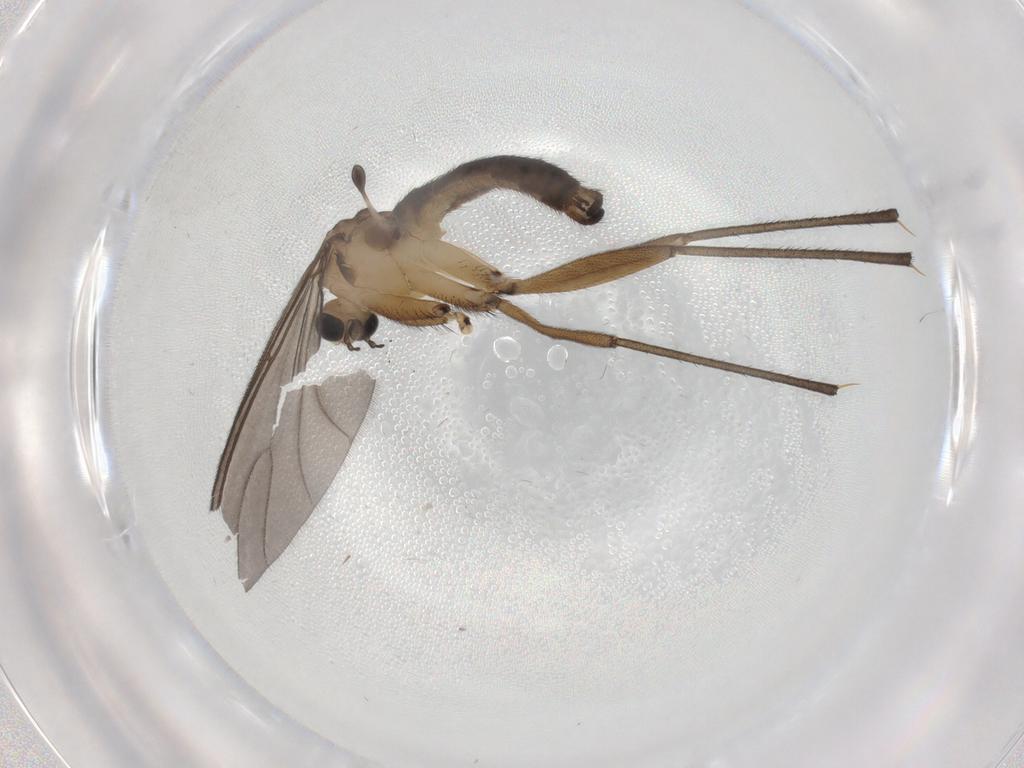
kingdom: Animalia
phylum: Arthropoda
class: Insecta
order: Diptera
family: Sciaridae
